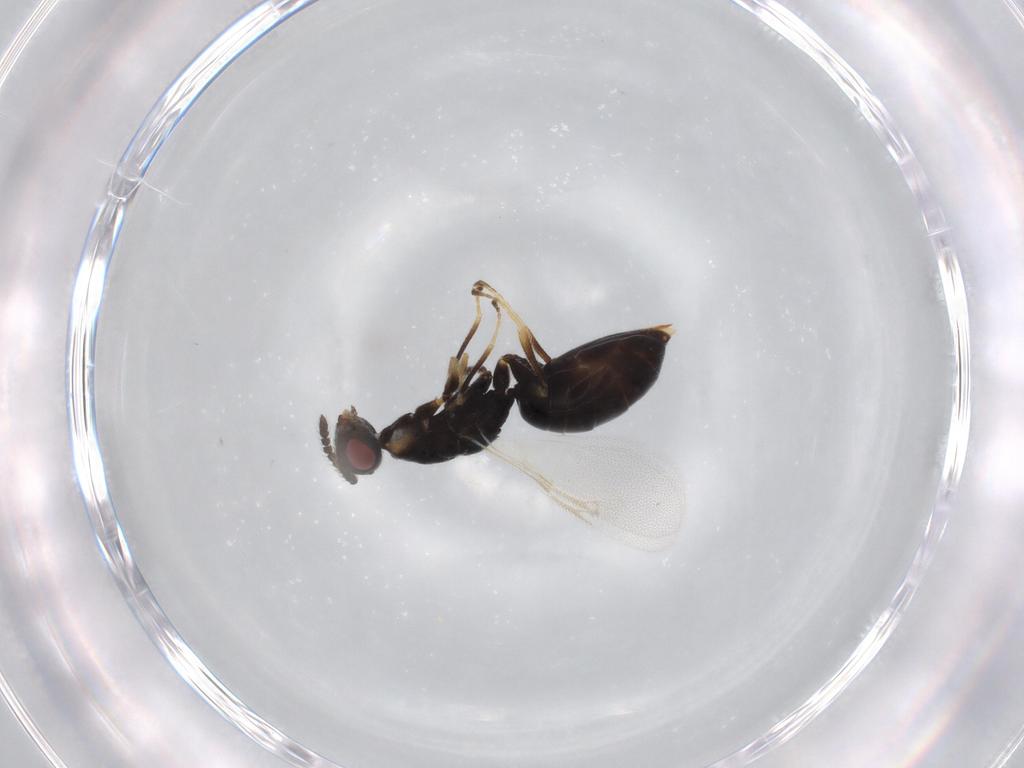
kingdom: Animalia
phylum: Arthropoda
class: Insecta
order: Hymenoptera
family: Eurytomidae
